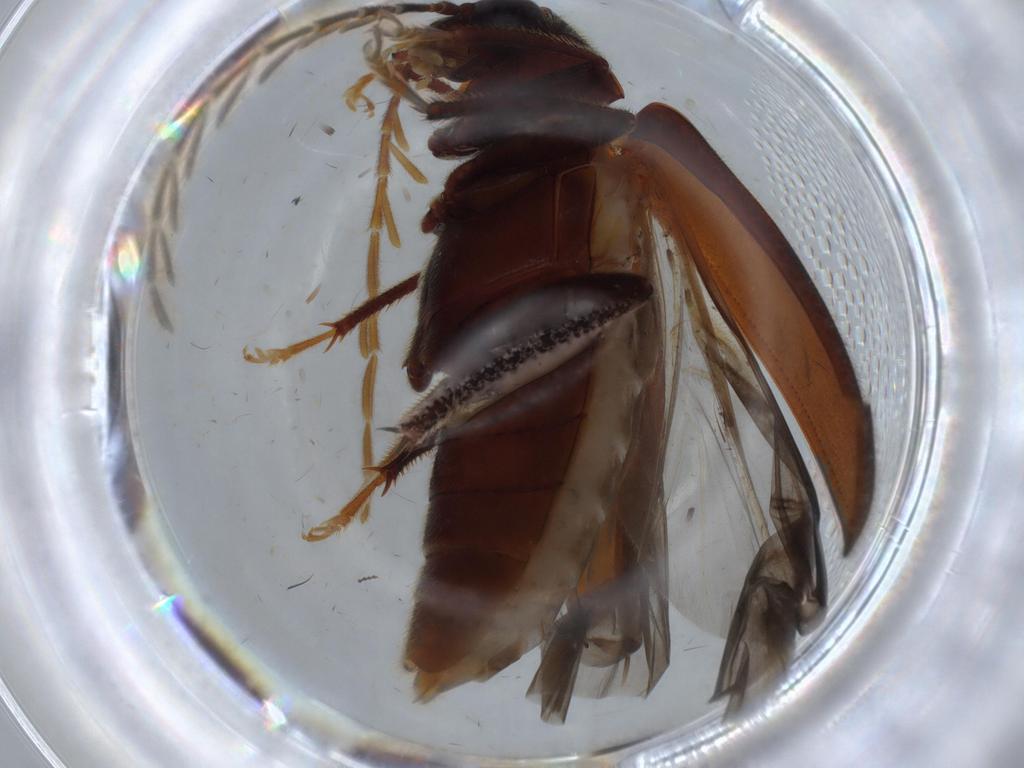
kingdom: Animalia
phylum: Arthropoda
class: Insecta
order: Coleoptera
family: Ptilodactylidae
